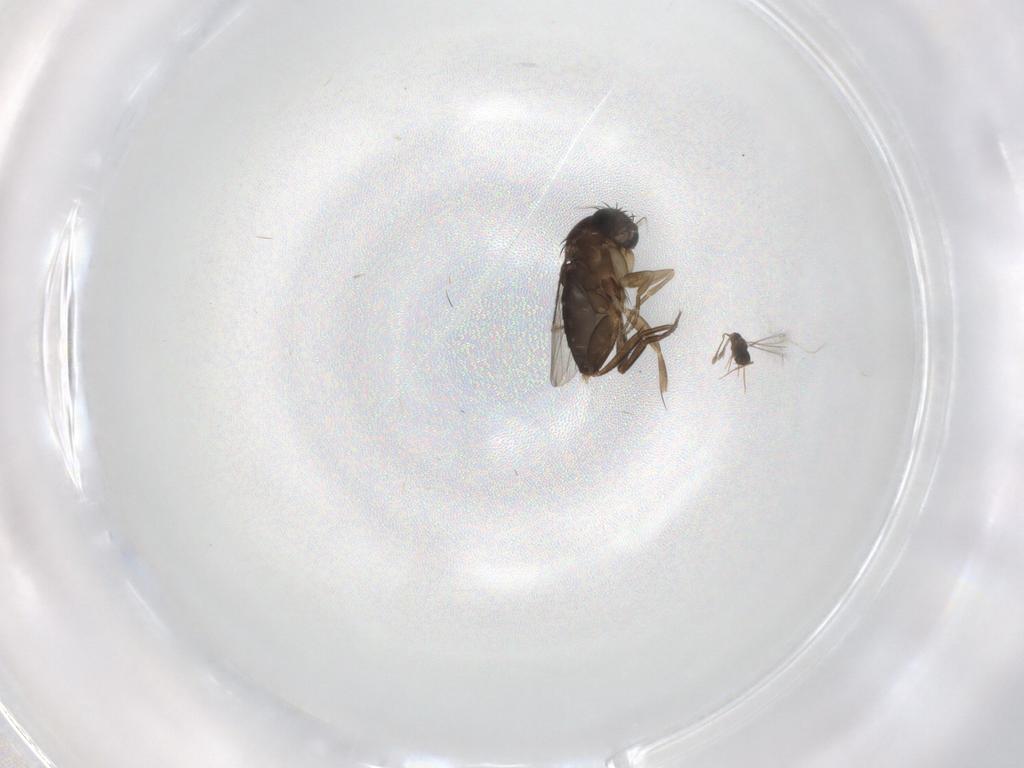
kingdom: Animalia
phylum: Arthropoda
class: Insecta
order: Diptera
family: Phoridae
